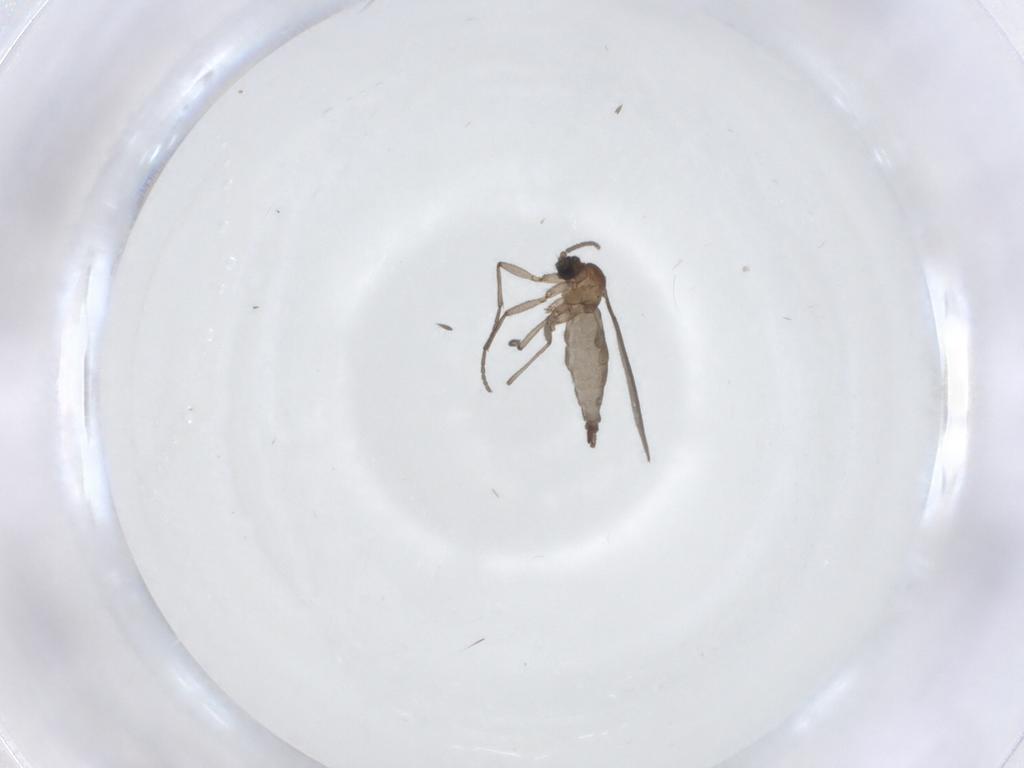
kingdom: Animalia
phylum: Arthropoda
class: Insecta
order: Diptera
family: Sciaridae
